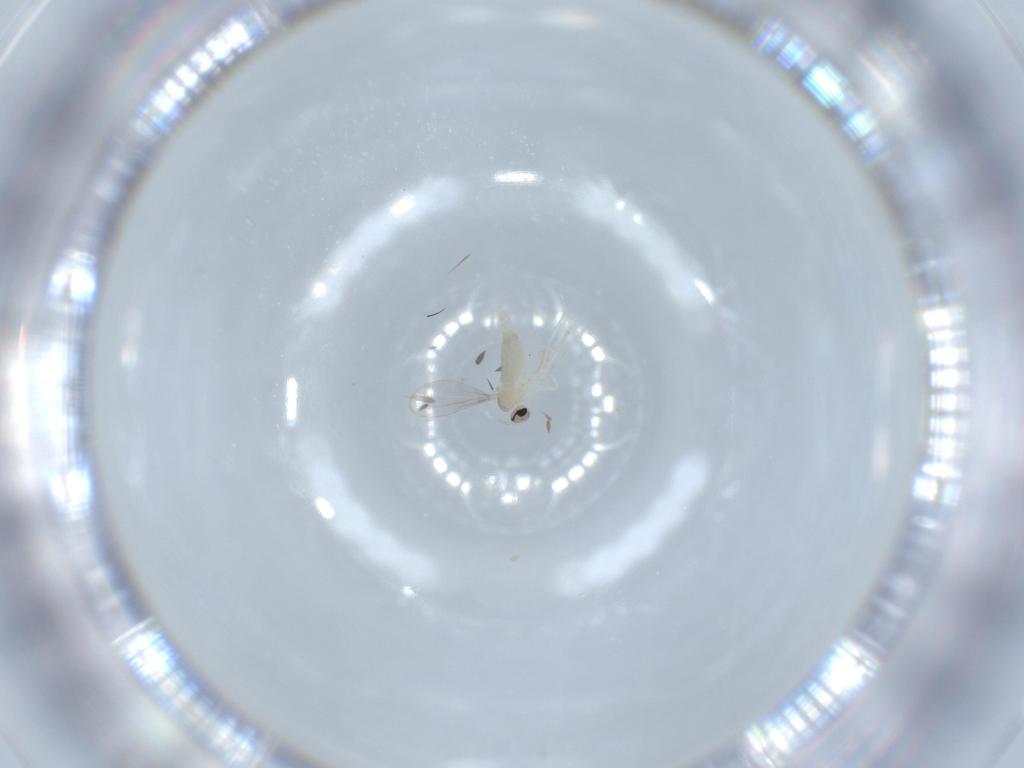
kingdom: Animalia
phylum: Arthropoda
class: Insecta
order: Diptera
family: Cecidomyiidae
